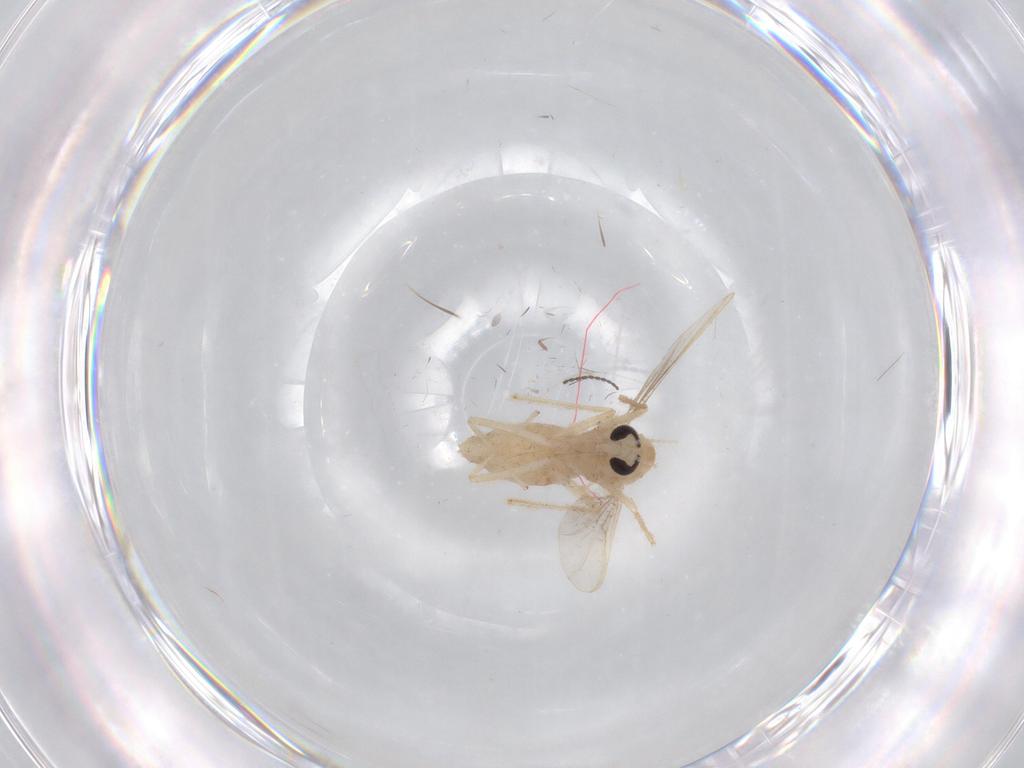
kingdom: Animalia
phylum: Arthropoda
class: Insecta
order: Diptera
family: Chironomidae
